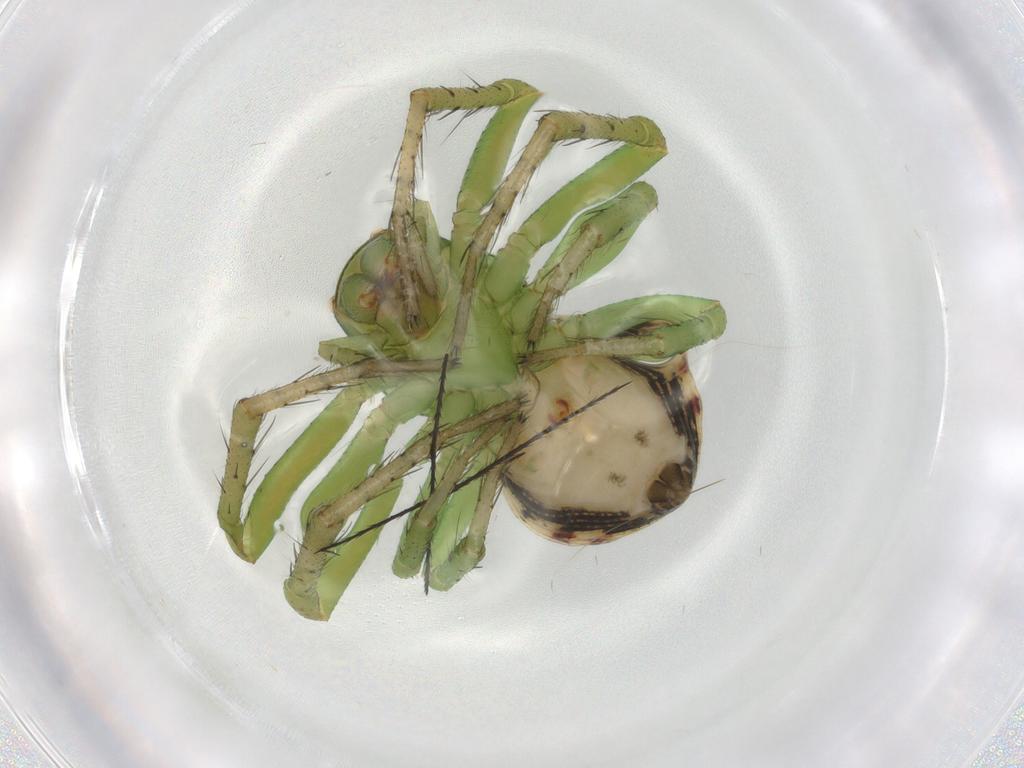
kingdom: Animalia
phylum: Arthropoda
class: Arachnida
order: Araneae
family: Thomisidae
